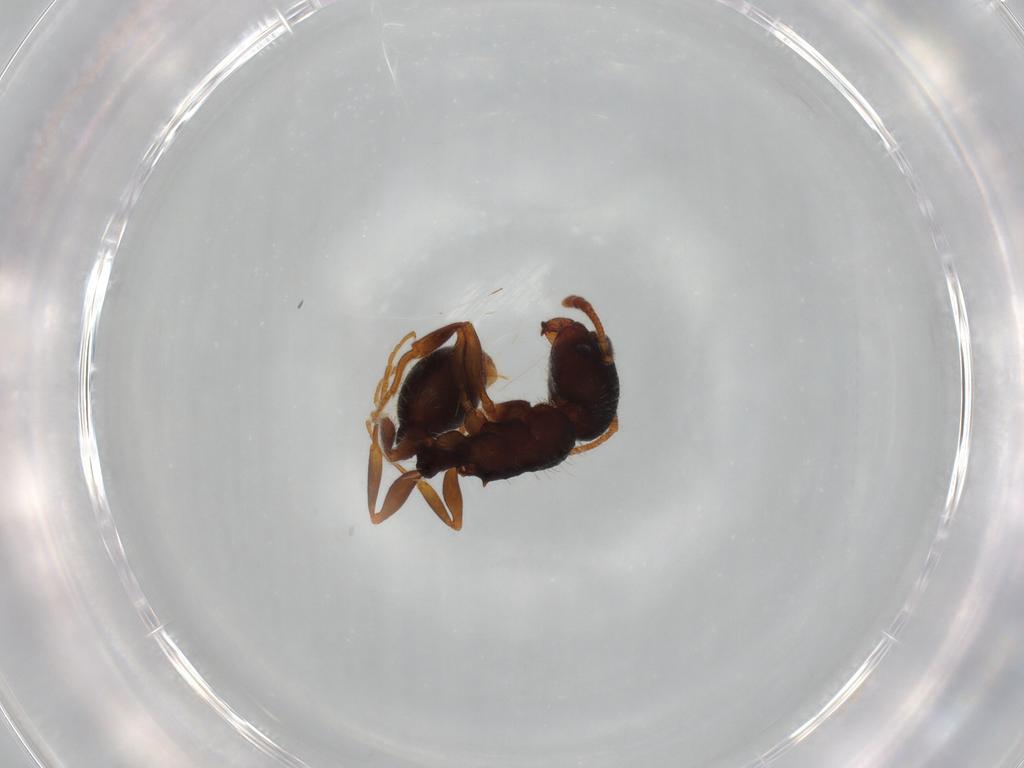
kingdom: Animalia
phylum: Arthropoda
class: Insecta
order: Hymenoptera
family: Formicidae
